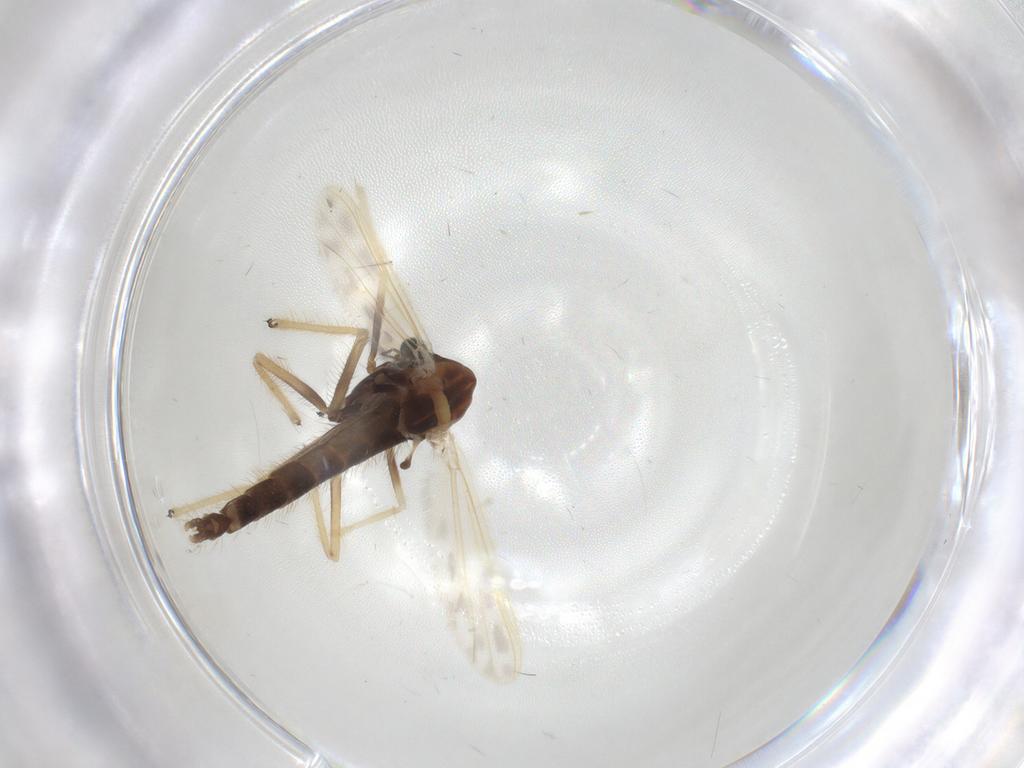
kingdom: Animalia
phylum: Arthropoda
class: Insecta
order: Diptera
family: Chironomidae
